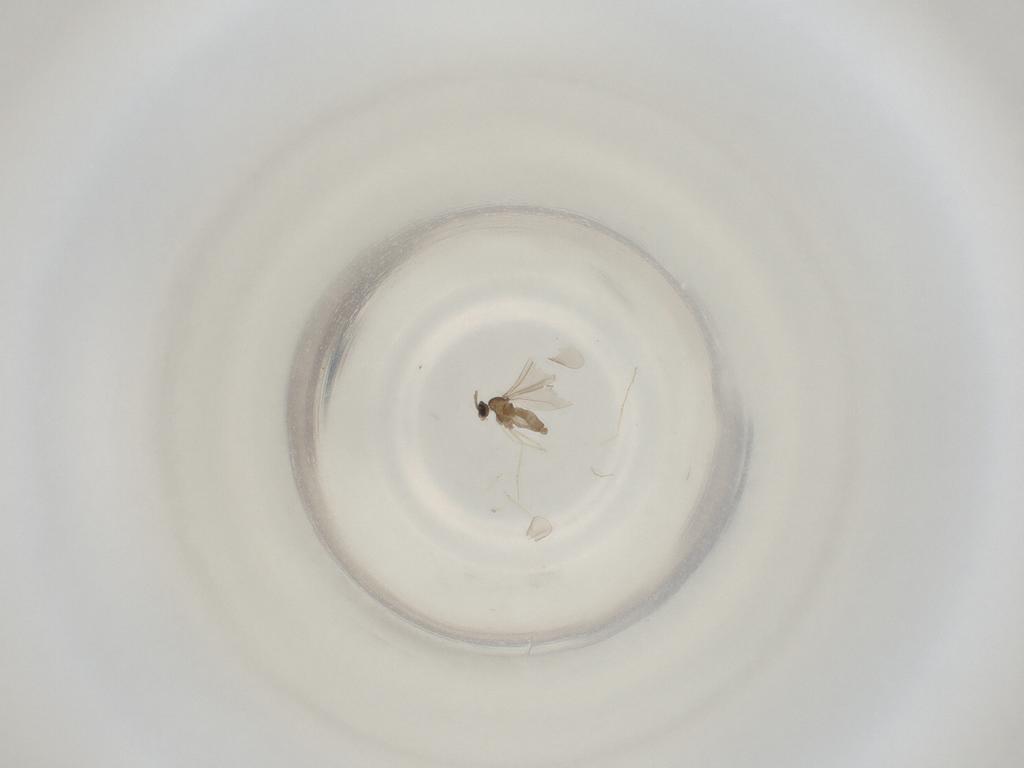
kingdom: Animalia
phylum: Arthropoda
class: Insecta
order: Diptera
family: Cecidomyiidae
